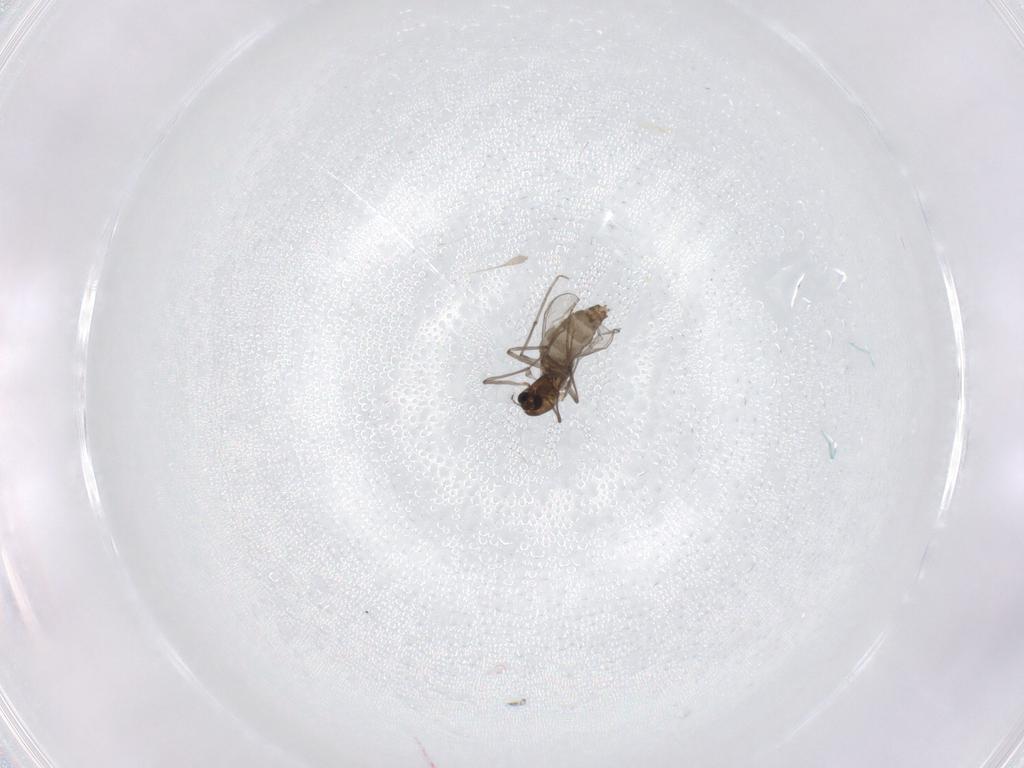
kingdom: Animalia
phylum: Arthropoda
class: Insecta
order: Diptera
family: Chironomidae
